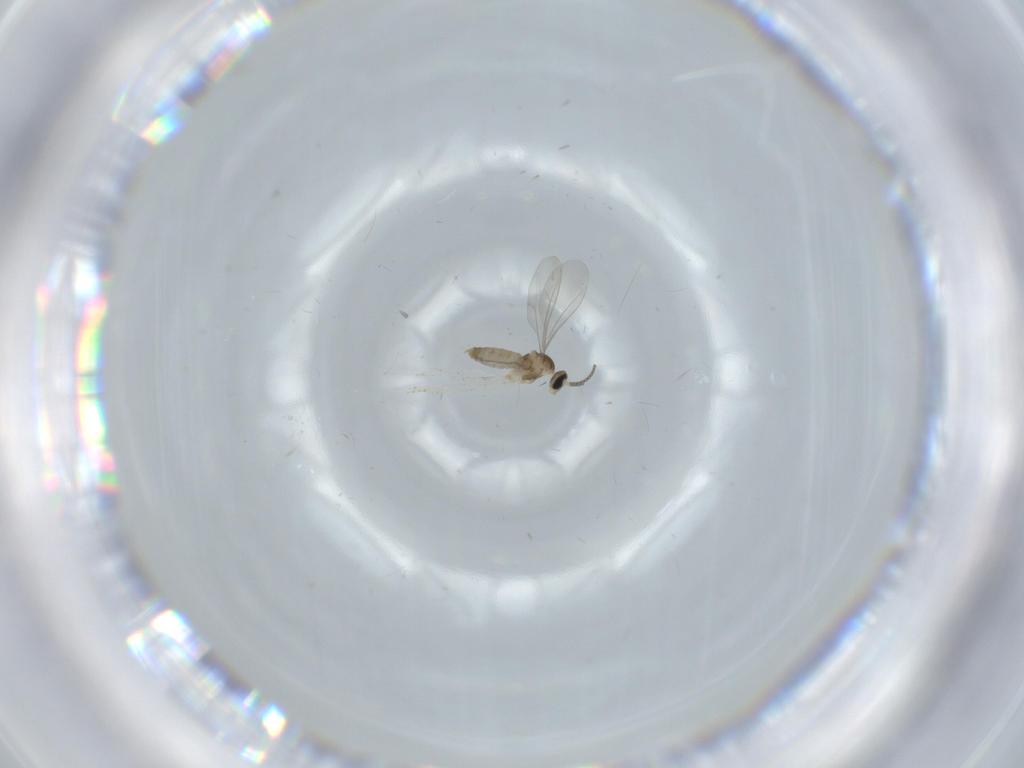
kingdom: Animalia
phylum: Arthropoda
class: Insecta
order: Diptera
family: Cecidomyiidae
